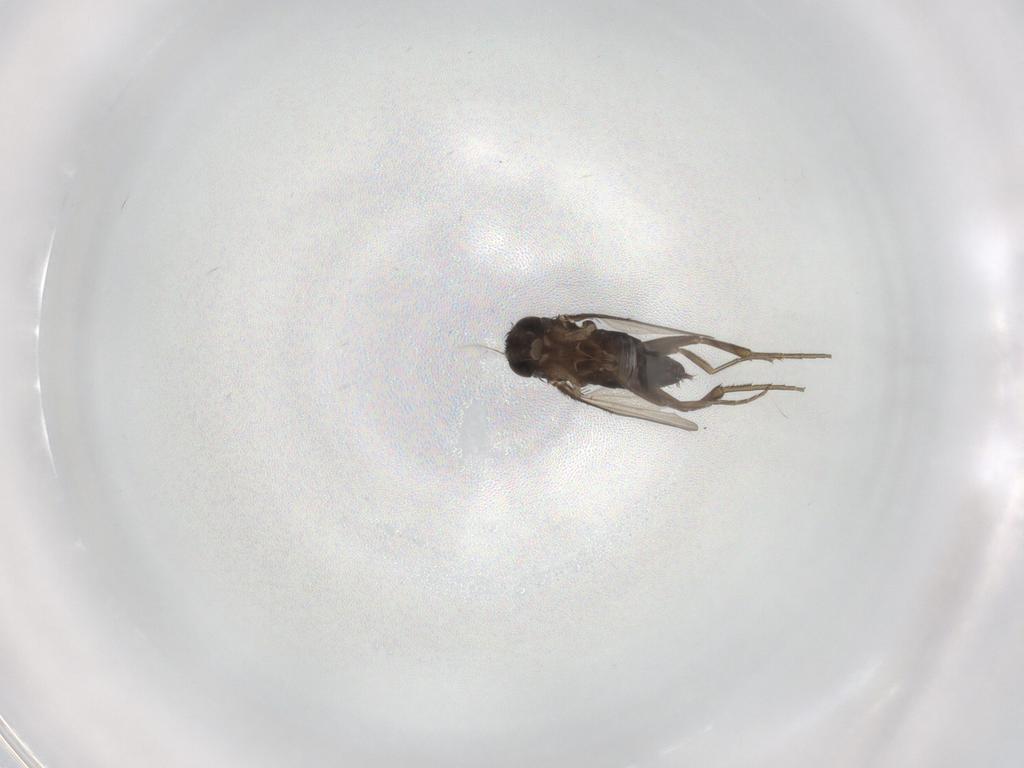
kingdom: Animalia
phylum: Arthropoda
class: Insecta
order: Diptera
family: Phoridae
